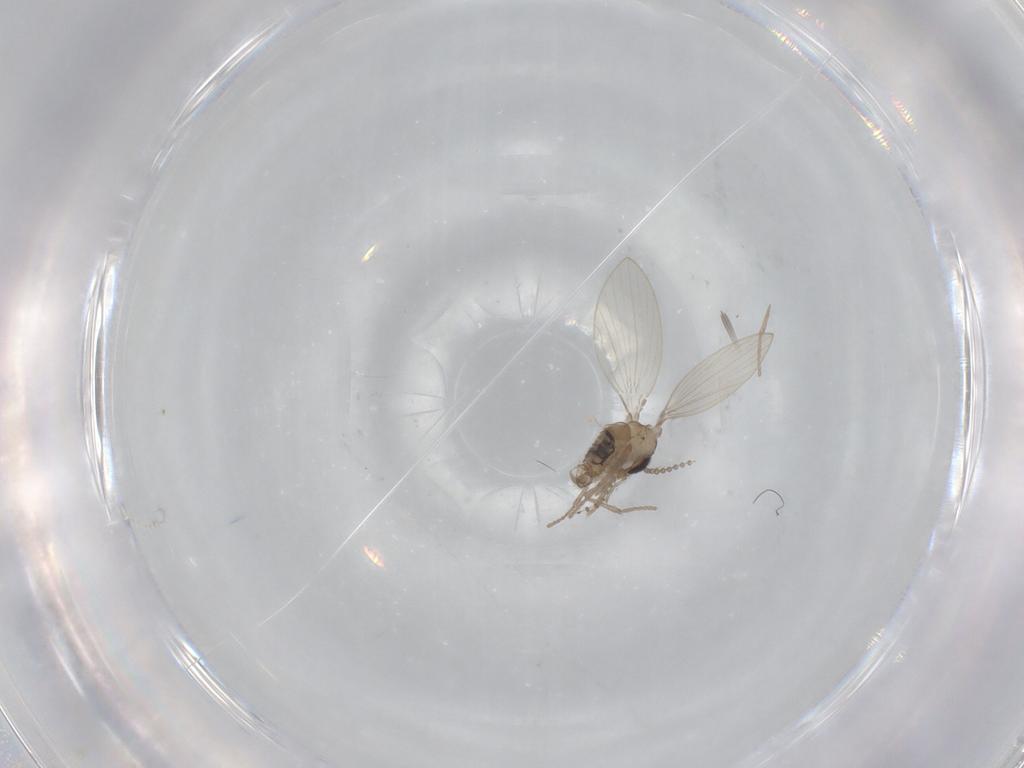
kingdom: Animalia
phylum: Arthropoda
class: Insecta
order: Diptera
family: Psychodidae
